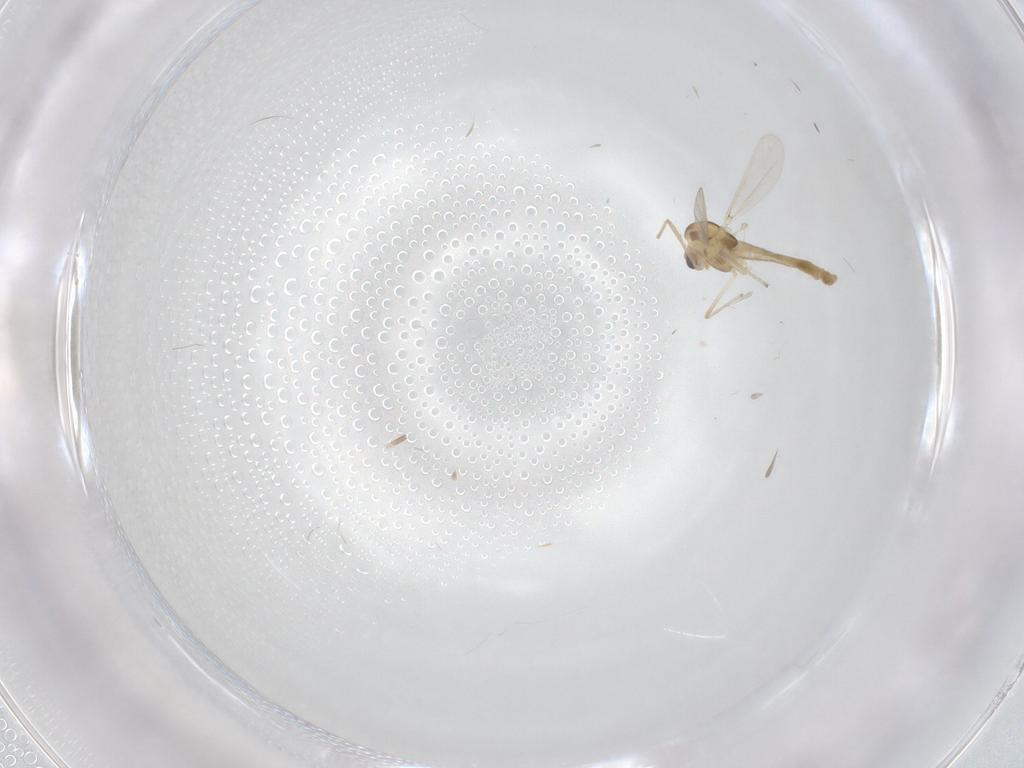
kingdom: Animalia
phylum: Arthropoda
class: Insecta
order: Diptera
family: Chironomidae
